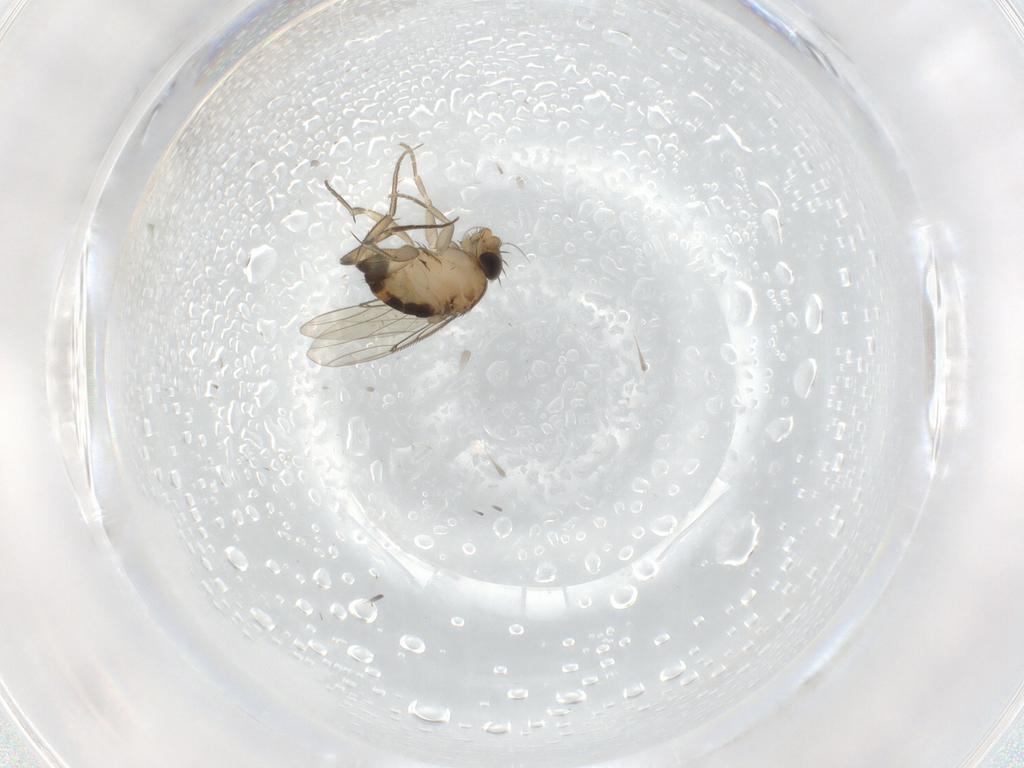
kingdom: Animalia
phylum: Arthropoda
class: Insecta
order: Diptera
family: Phoridae
